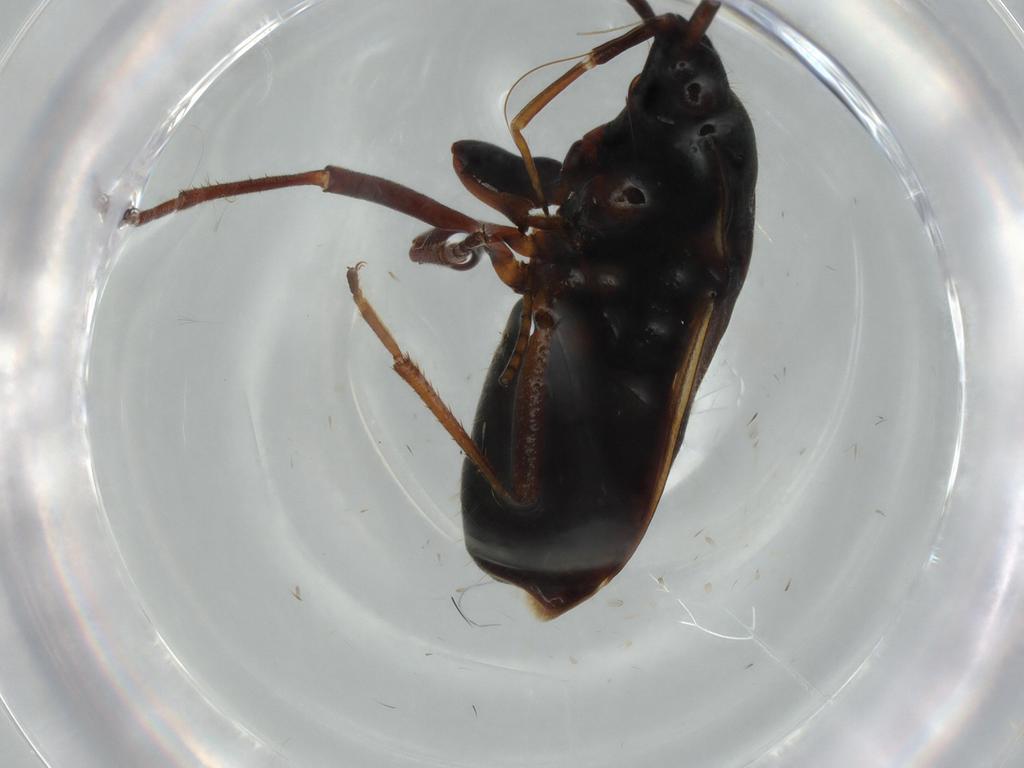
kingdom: Animalia
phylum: Arthropoda
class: Insecta
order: Hemiptera
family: Rhyparochromidae
